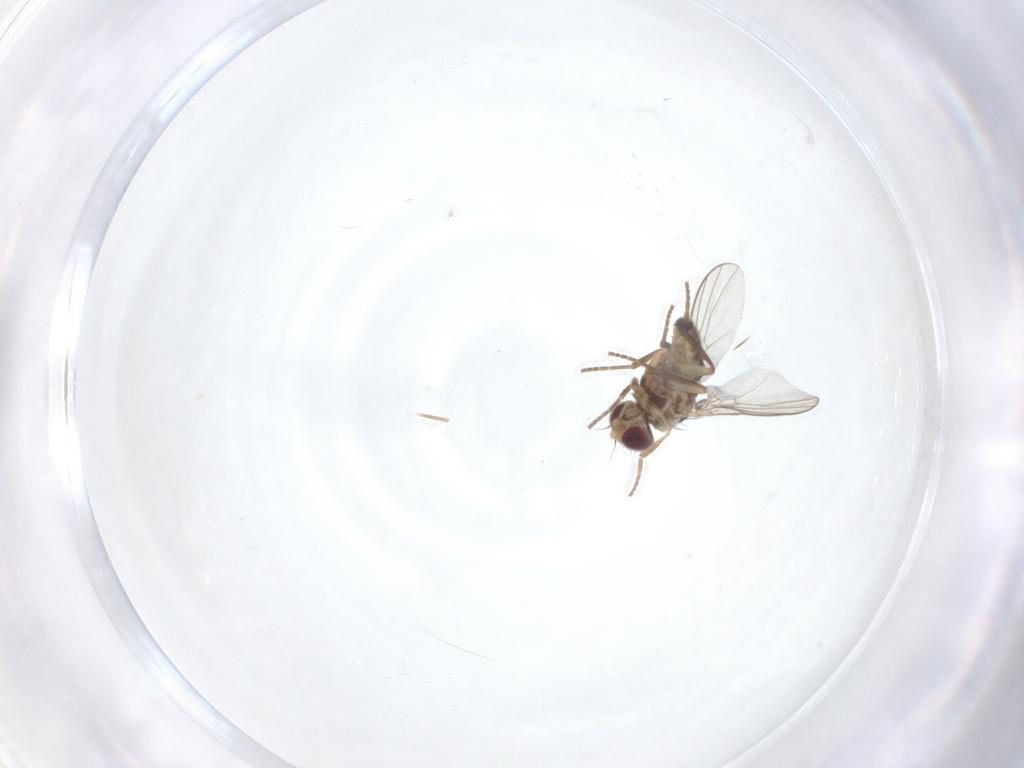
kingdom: Animalia
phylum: Arthropoda
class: Insecta
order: Diptera
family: Agromyzidae
